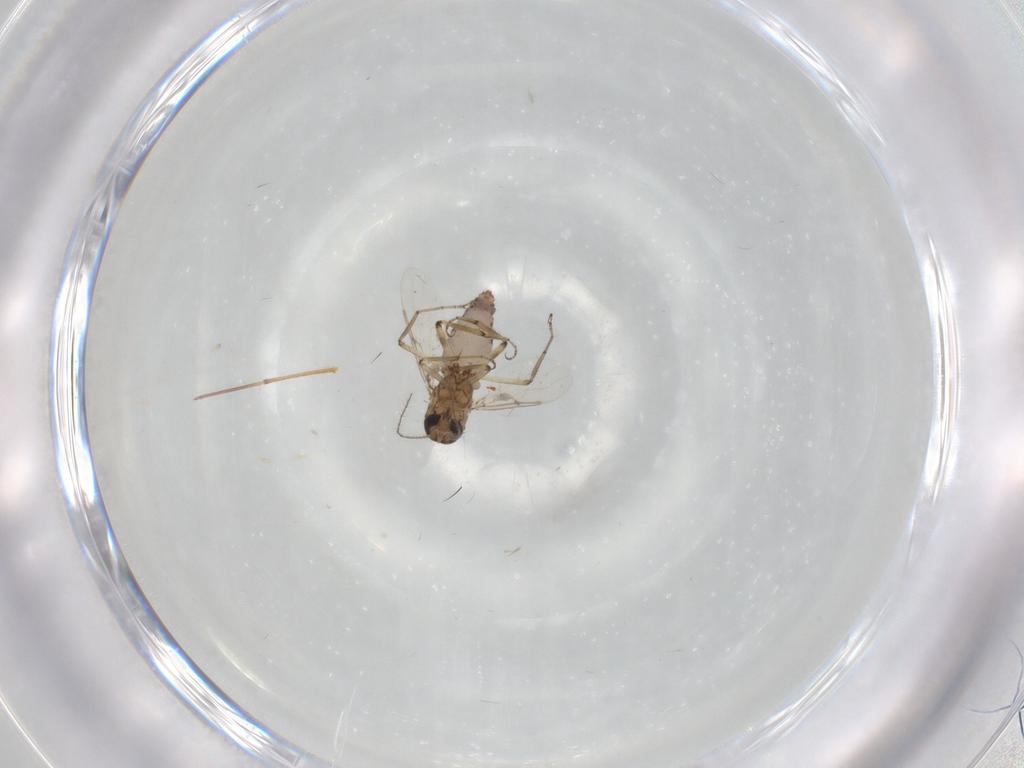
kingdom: Animalia
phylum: Arthropoda
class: Insecta
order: Diptera
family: Ceratopogonidae
